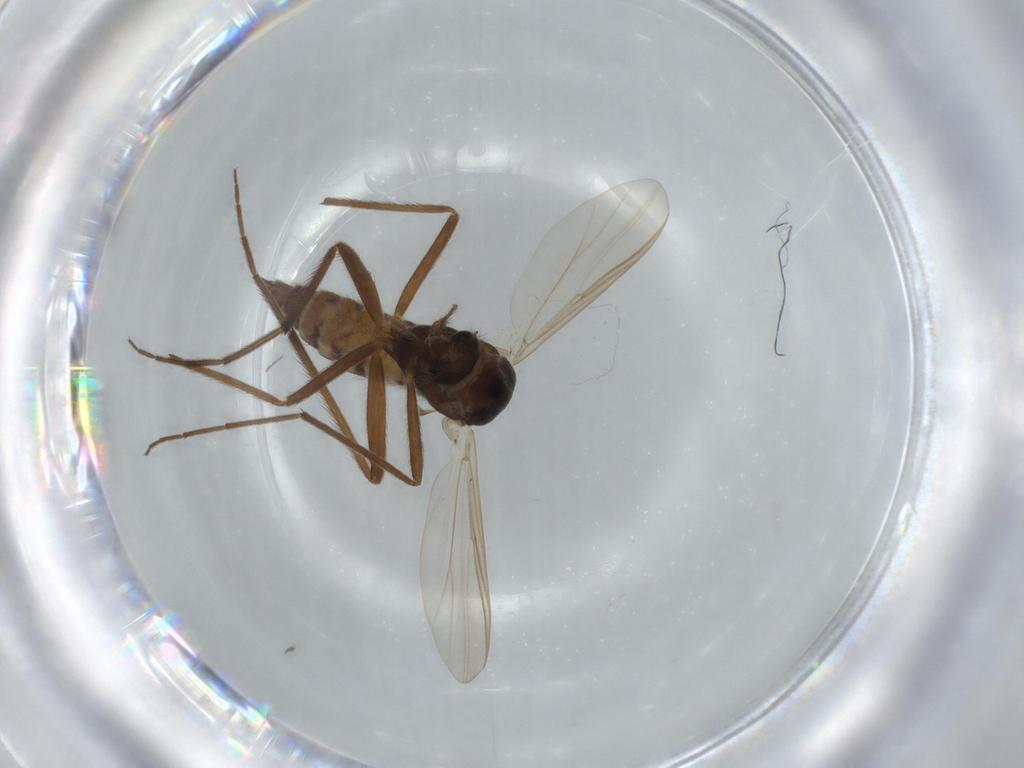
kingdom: Animalia
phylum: Arthropoda
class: Insecta
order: Diptera
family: Chironomidae
